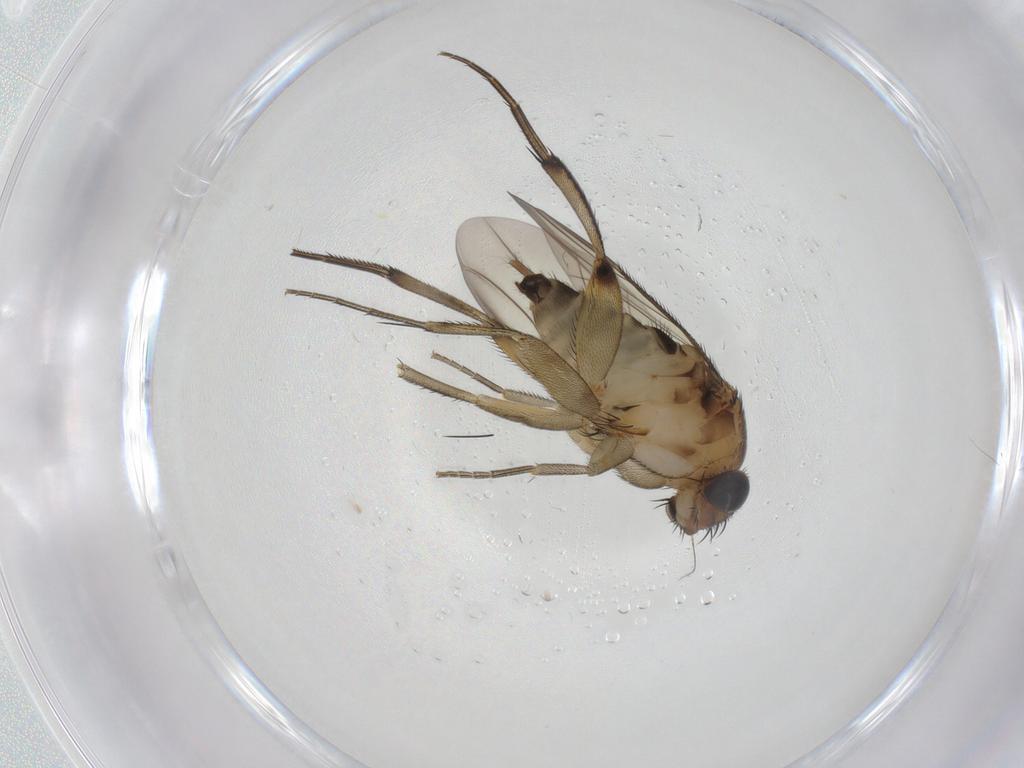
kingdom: Animalia
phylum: Arthropoda
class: Insecta
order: Diptera
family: Phoridae
